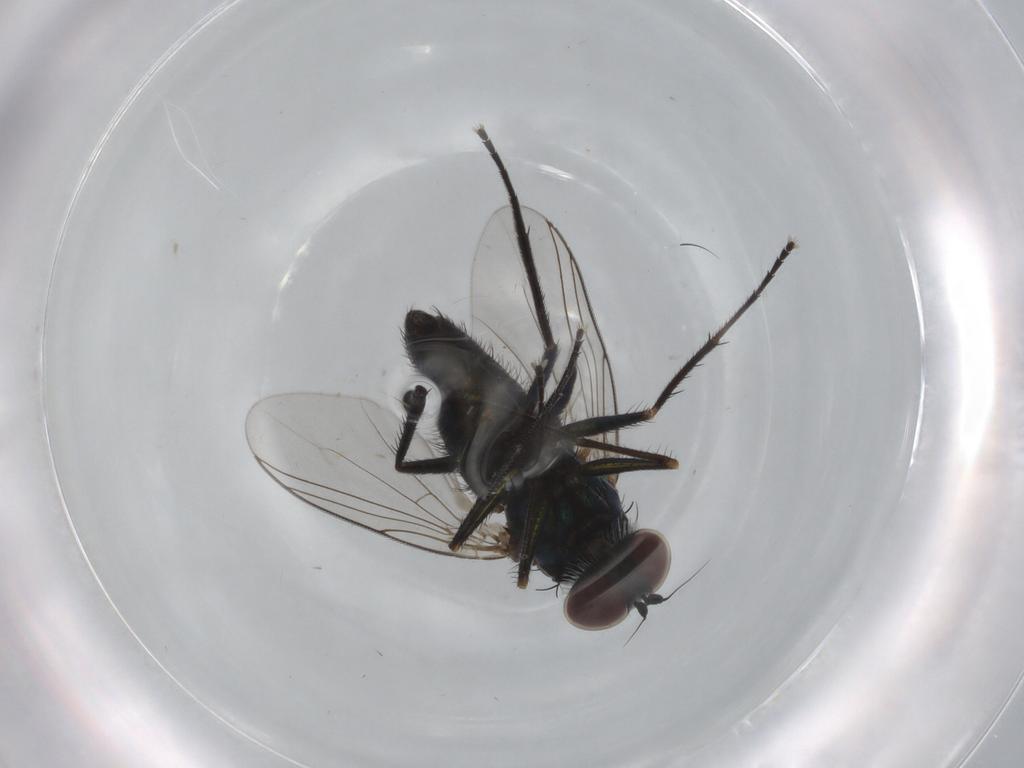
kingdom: Animalia
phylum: Arthropoda
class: Insecta
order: Diptera
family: Dolichopodidae
